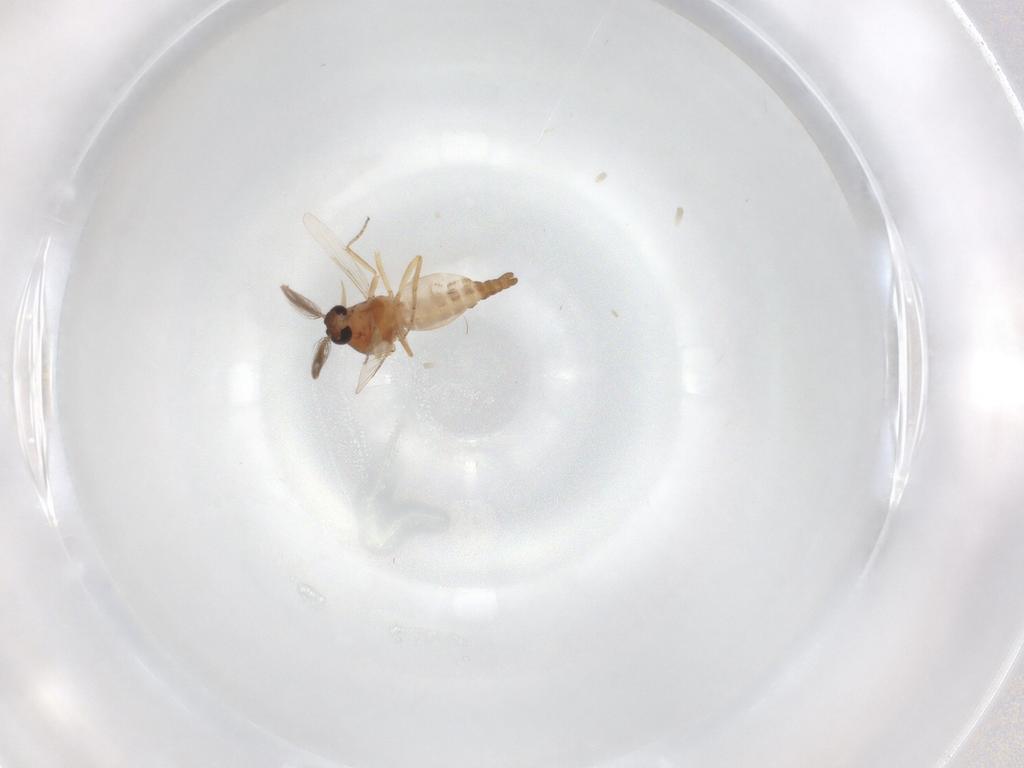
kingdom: Animalia
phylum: Arthropoda
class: Insecta
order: Diptera
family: Ceratopogonidae
